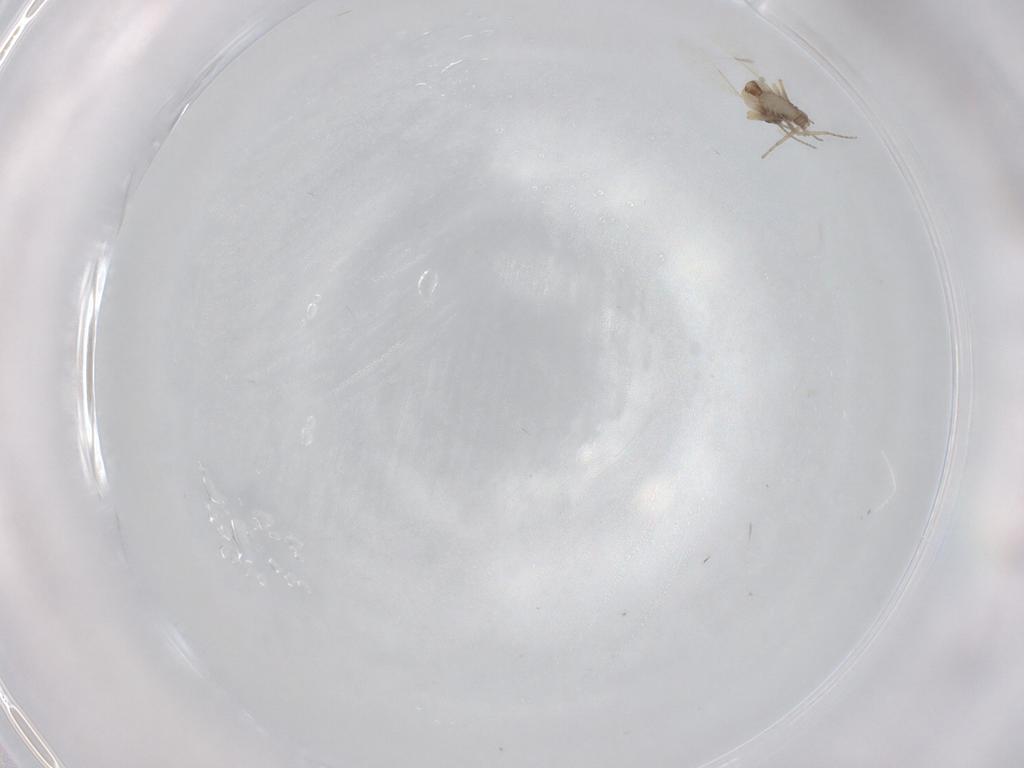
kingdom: Animalia
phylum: Arthropoda
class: Insecta
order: Diptera
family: Ceratopogonidae
